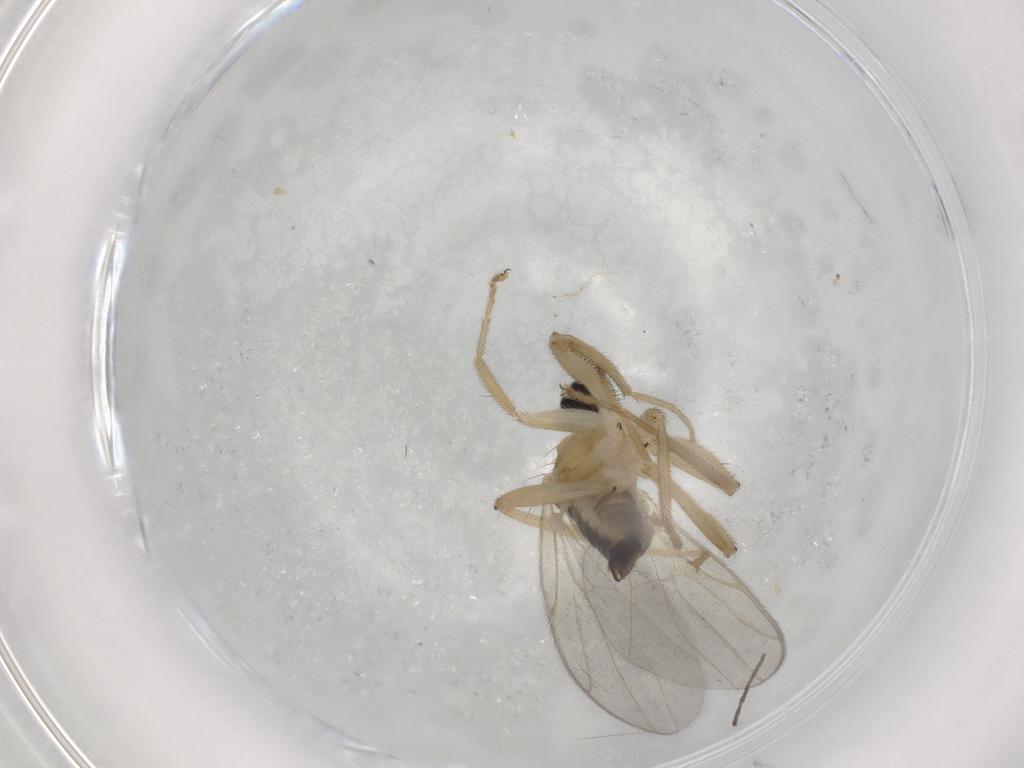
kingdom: Animalia
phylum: Arthropoda
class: Insecta
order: Diptera
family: Hybotidae
